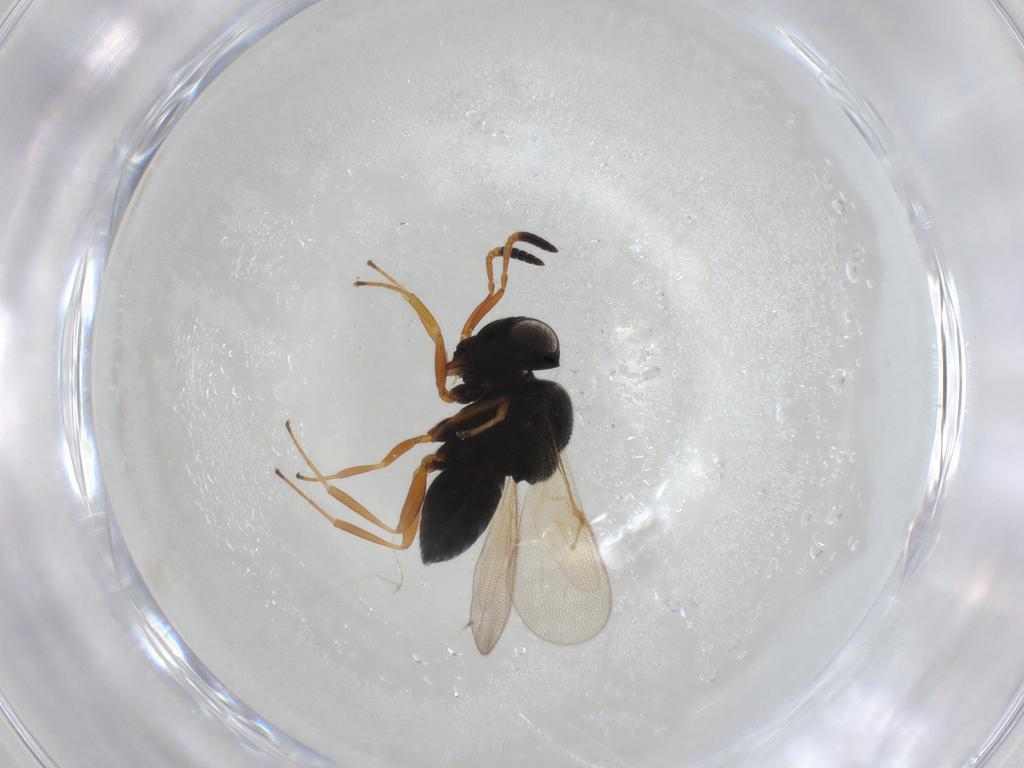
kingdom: Animalia
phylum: Arthropoda
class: Insecta
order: Hymenoptera
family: Scelionidae
